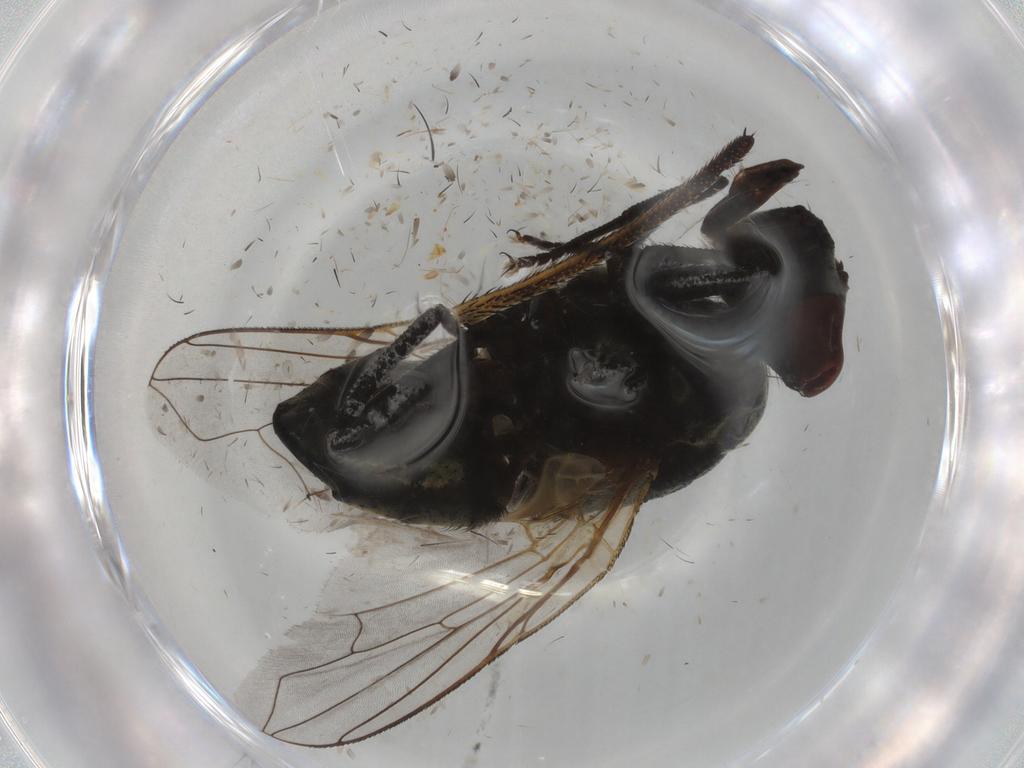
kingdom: Animalia
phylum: Arthropoda
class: Insecta
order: Diptera
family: Muscidae
